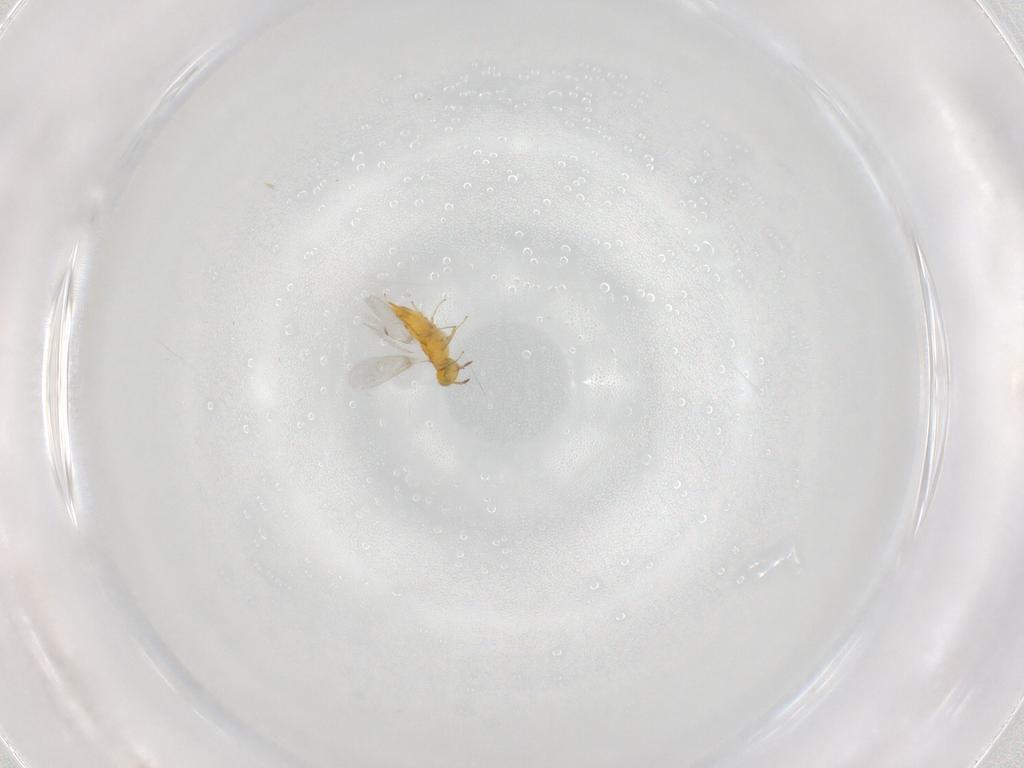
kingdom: Animalia
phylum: Arthropoda
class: Insecta
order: Hymenoptera
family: Aphelinidae
